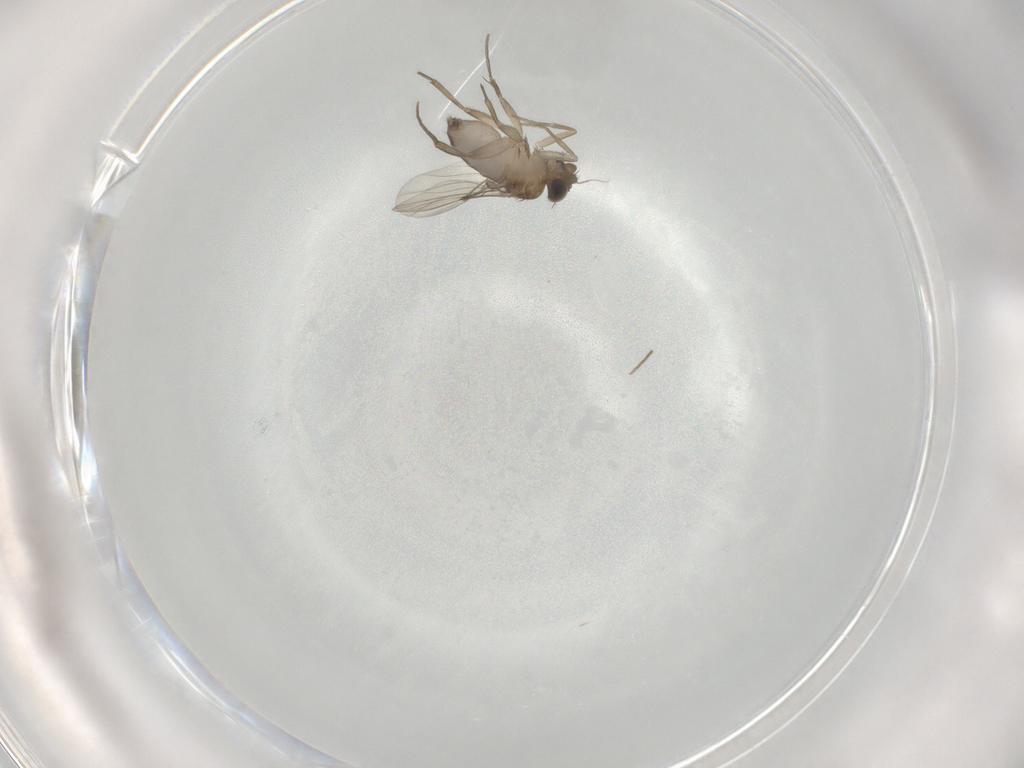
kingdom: Animalia
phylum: Arthropoda
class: Insecta
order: Diptera
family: Phoridae
